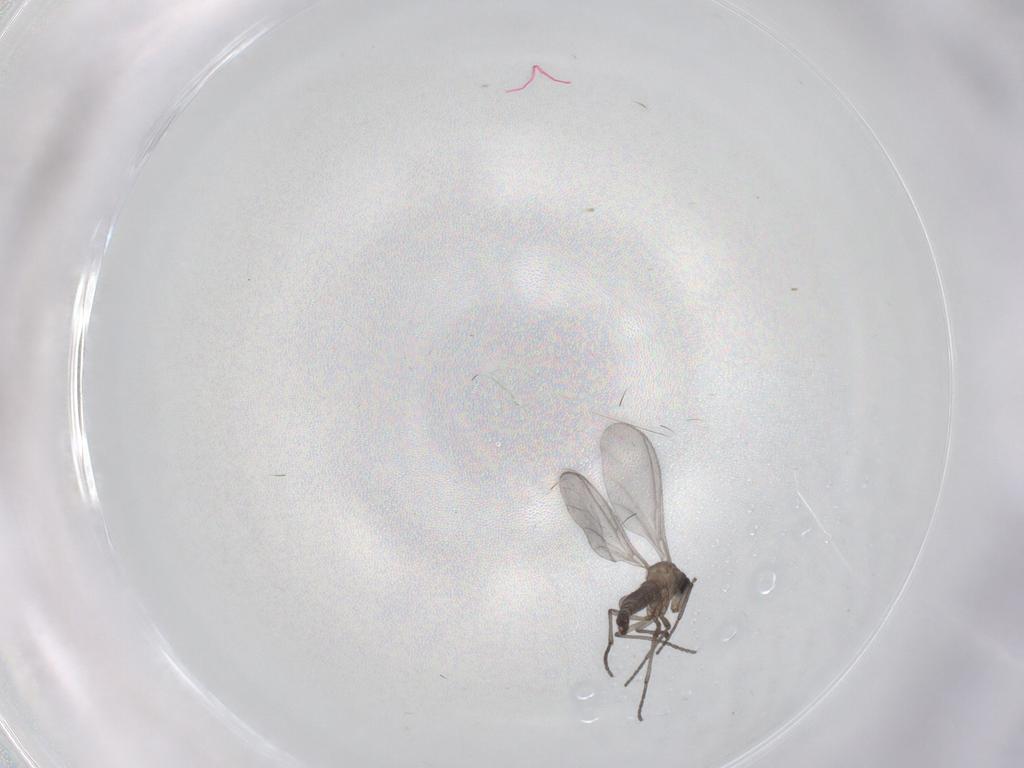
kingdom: Animalia
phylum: Arthropoda
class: Insecta
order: Diptera
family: Sciaridae
